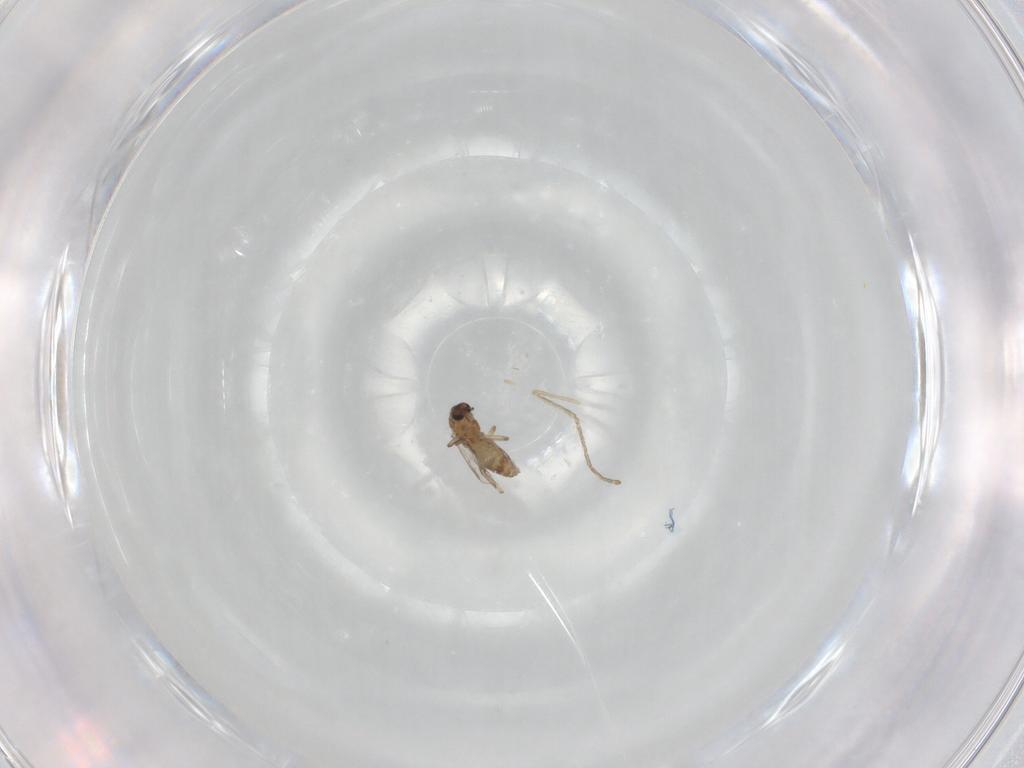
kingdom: Animalia
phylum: Arthropoda
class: Insecta
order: Diptera
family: Chironomidae
